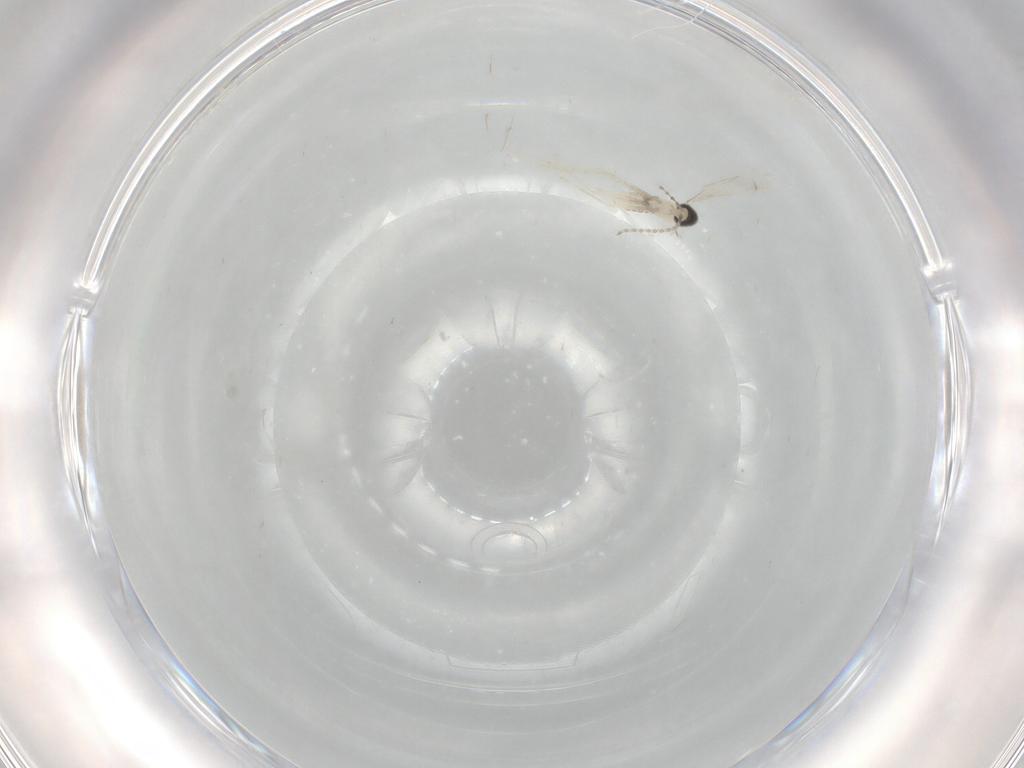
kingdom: Animalia
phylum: Arthropoda
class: Insecta
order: Diptera
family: Cecidomyiidae
